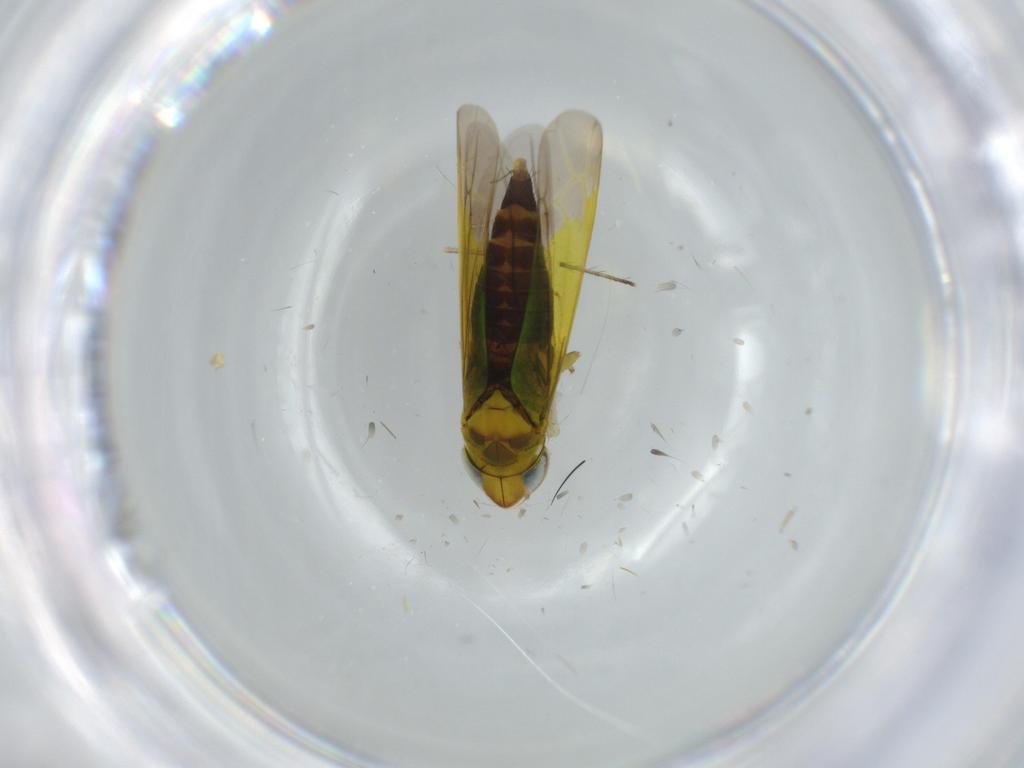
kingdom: Animalia
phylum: Arthropoda
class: Insecta
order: Diptera
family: Chironomidae
